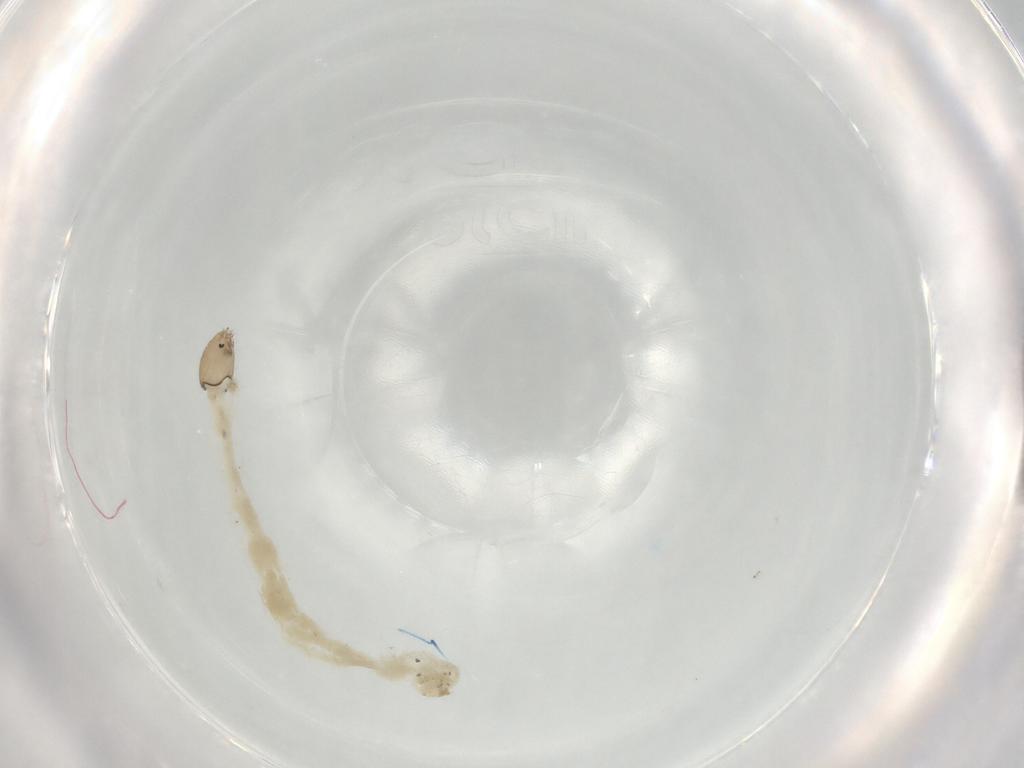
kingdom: Animalia
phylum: Arthropoda
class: Insecta
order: Diptera
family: Chironomidae
